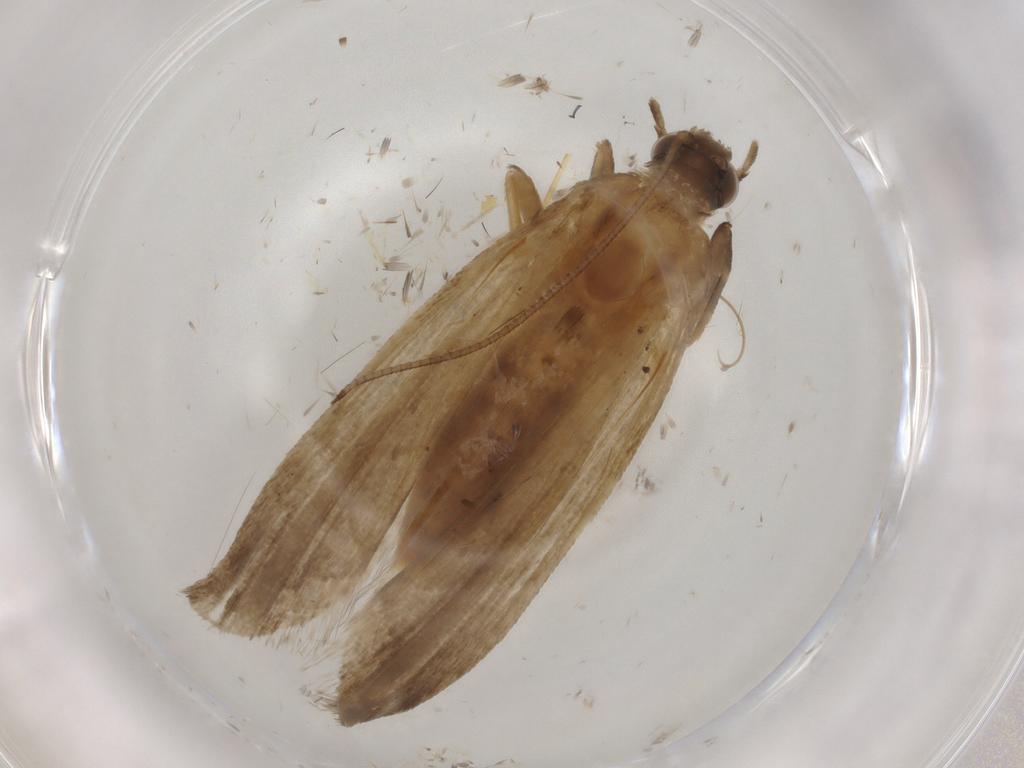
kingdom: Animalia
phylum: Arthropoda
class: Insecta
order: Lepidoptera
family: Noctuidae
